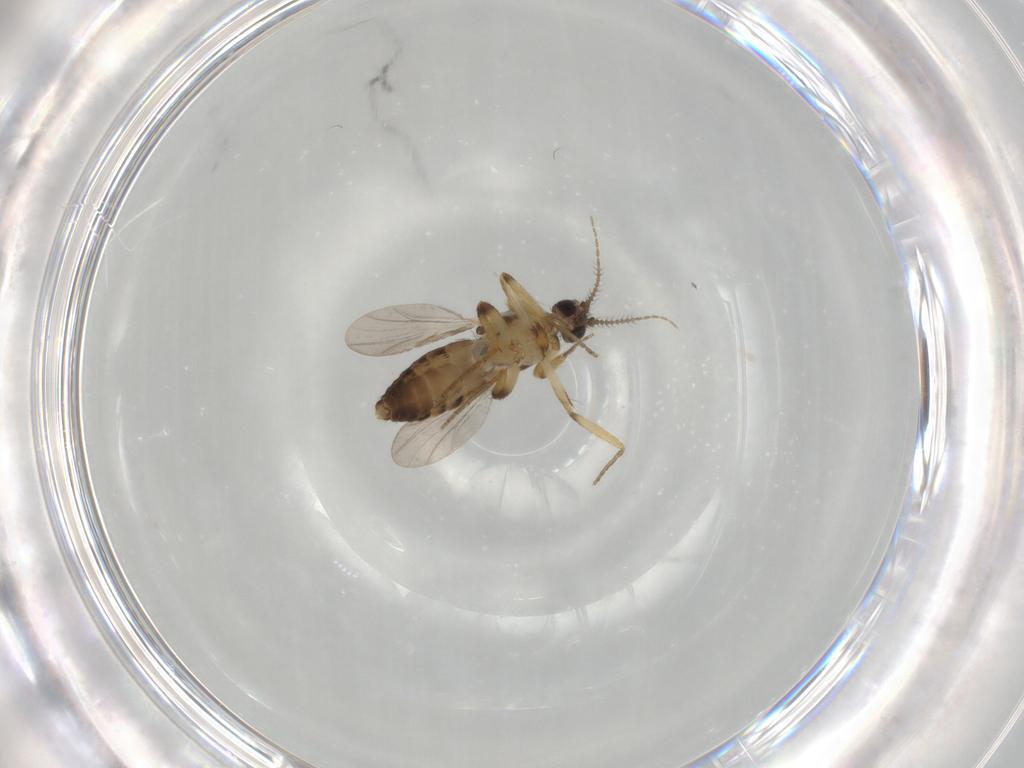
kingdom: Animalia
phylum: Arthropoda
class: Insecta
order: Diptera
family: Ceratopogonidae
